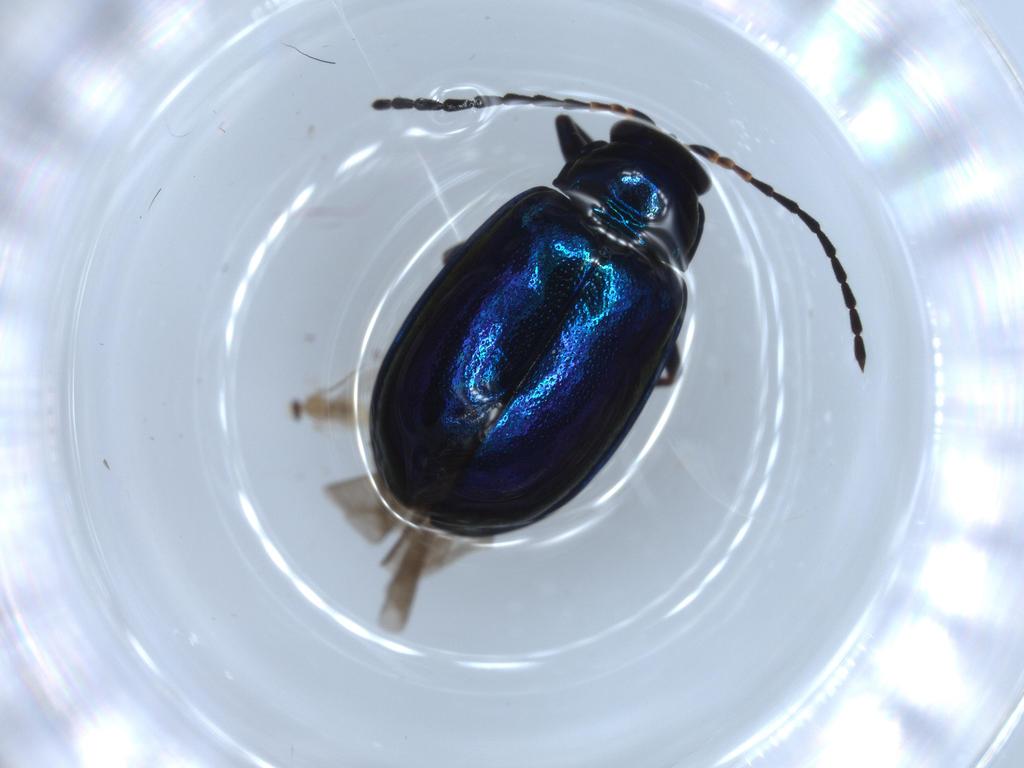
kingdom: Animalia
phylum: Arthropoda
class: Insecta
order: Coleoptera
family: Chrysomelidae
